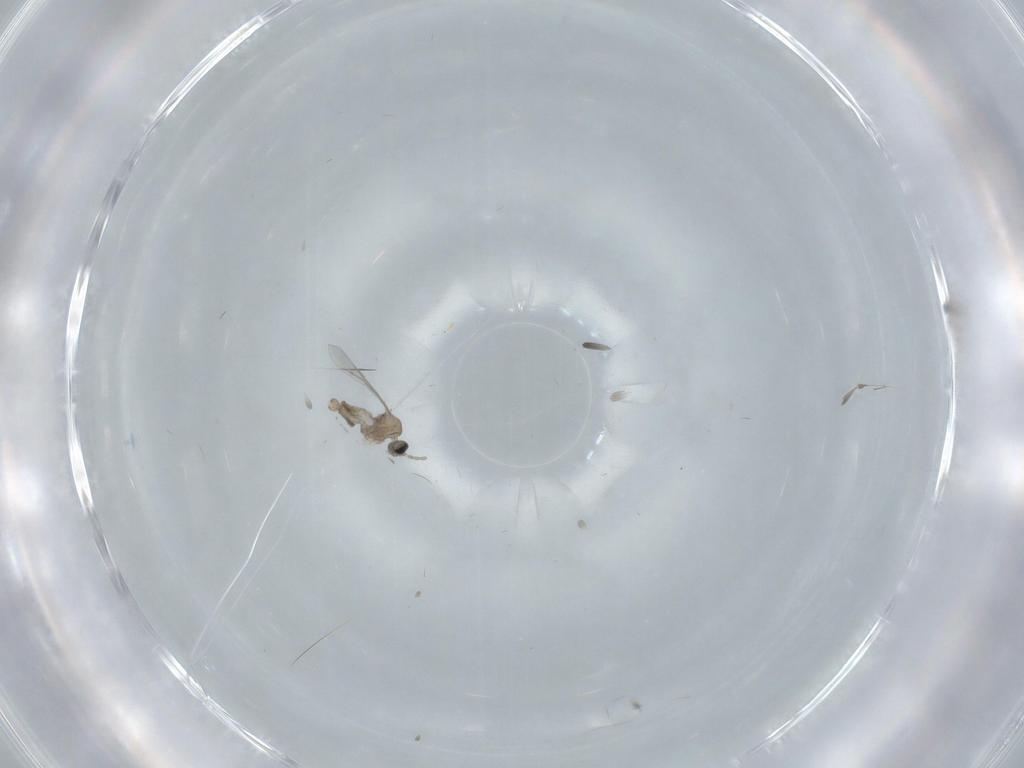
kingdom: Animalia
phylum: Arthropoda
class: Insecta
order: Diptera
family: Cecidomyiidae
